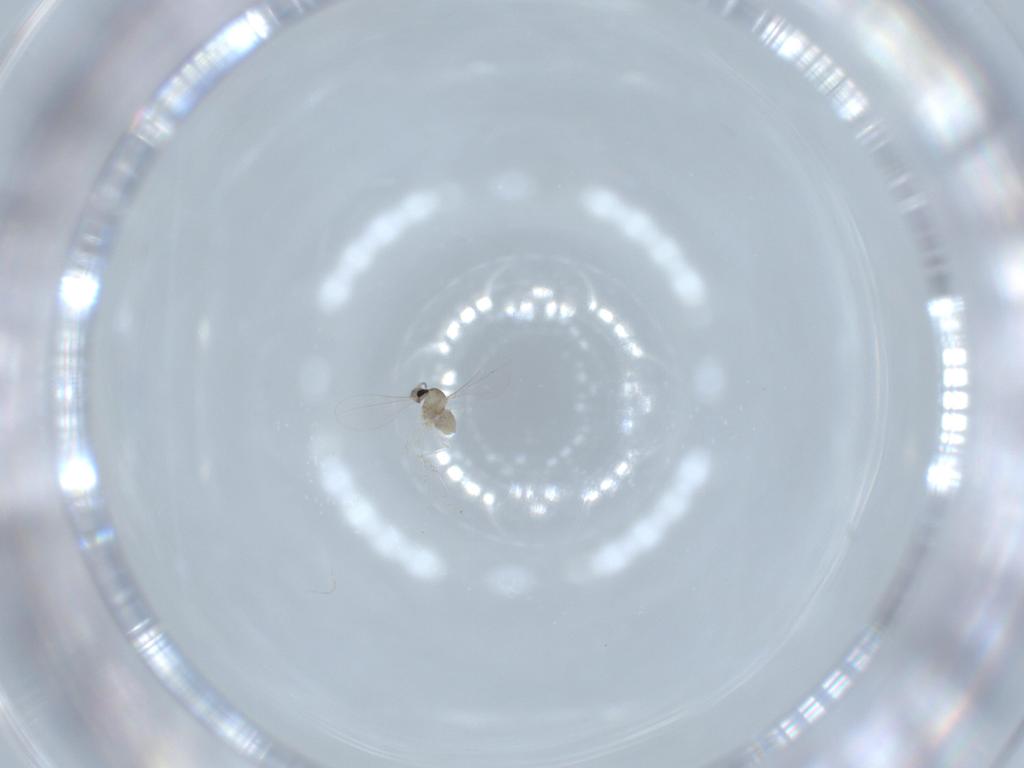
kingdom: Animalia
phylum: Arthropoda
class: Insecta
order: Diptera
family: Cecidomyiidae
